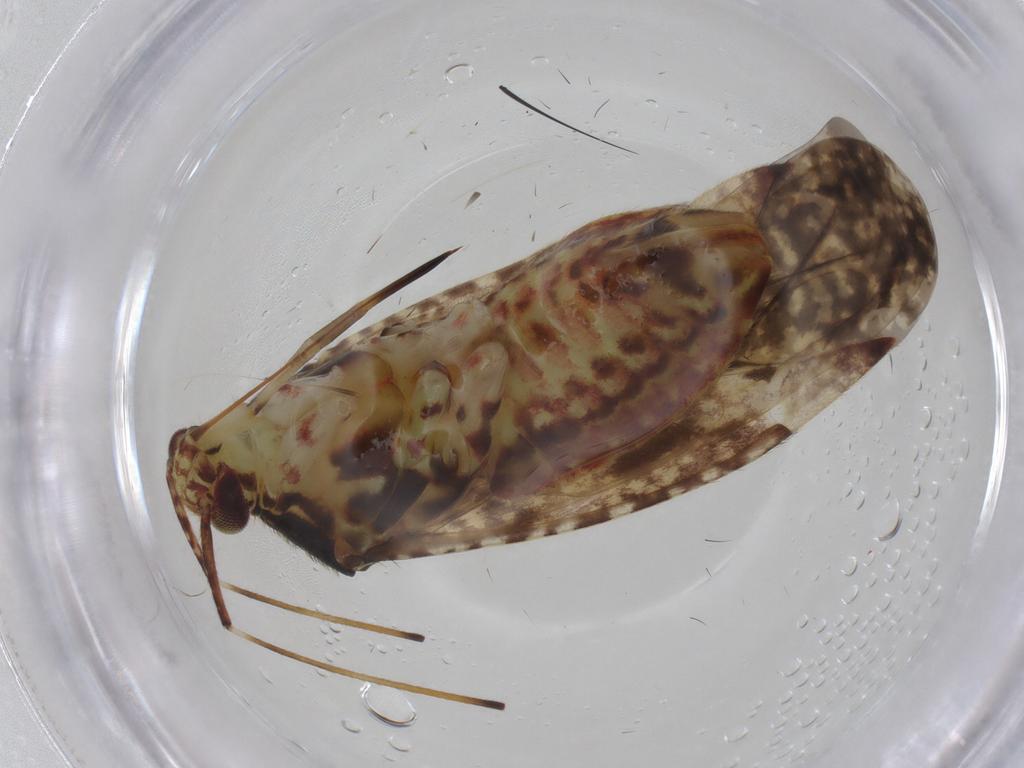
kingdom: Animalia
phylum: Arthropoda
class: Insecta
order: Hemiptera
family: Miridae
